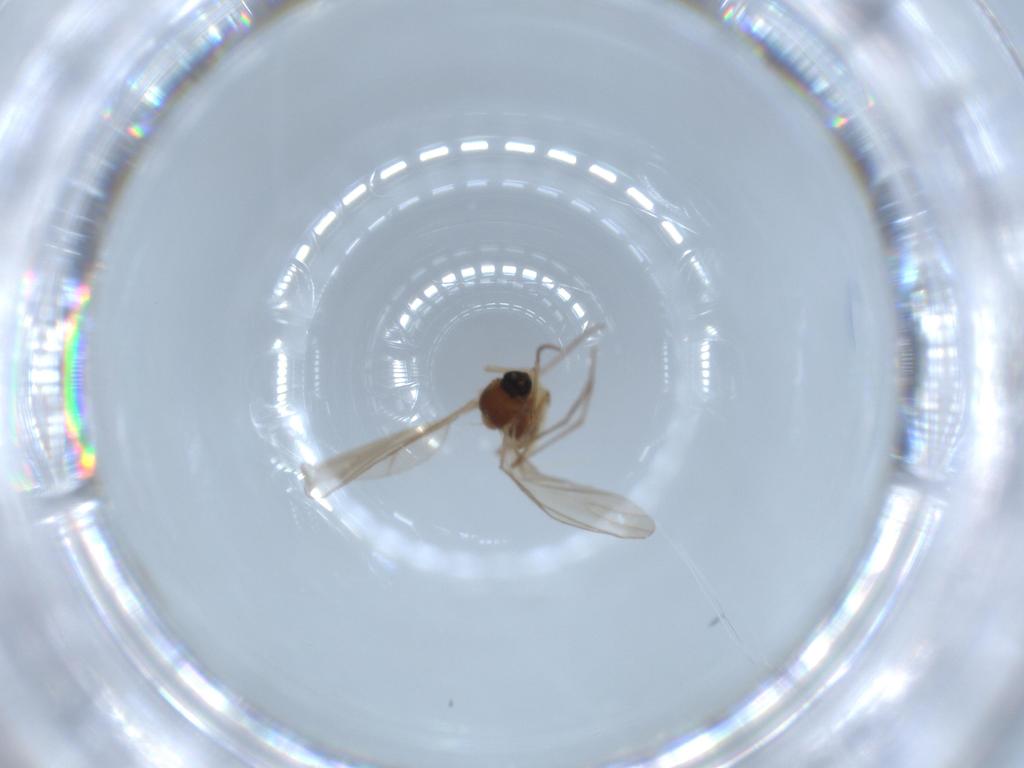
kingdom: Animalia
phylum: Arthropoda
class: Insecta
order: Diptera
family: Sciaridae
